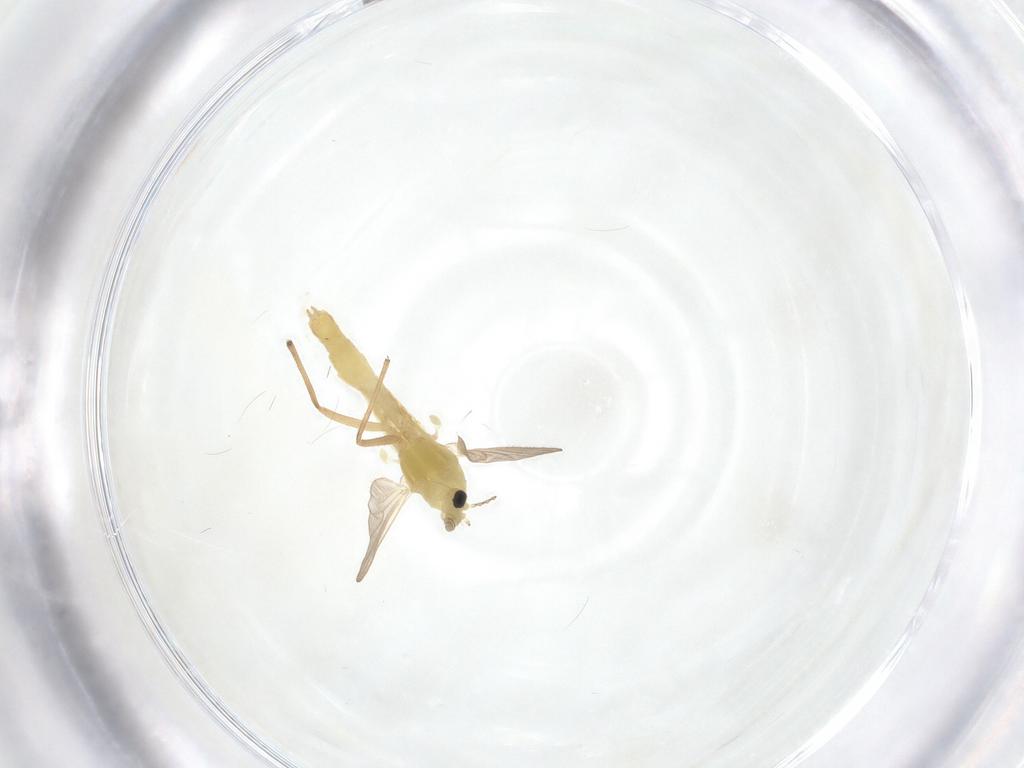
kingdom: Animalia
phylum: Arthropoda
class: Insecta
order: Diptera
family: Chironomidae
